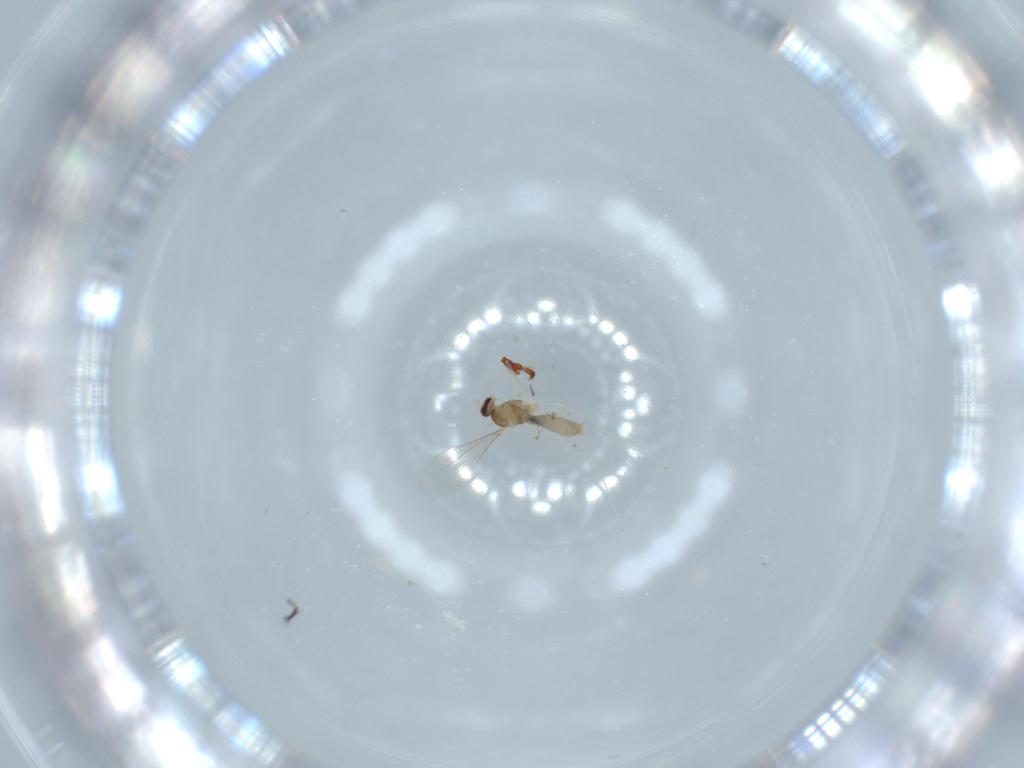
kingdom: Animalia
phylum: Arthropoda
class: Insecta
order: Diptera
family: Cecidomyiidae
